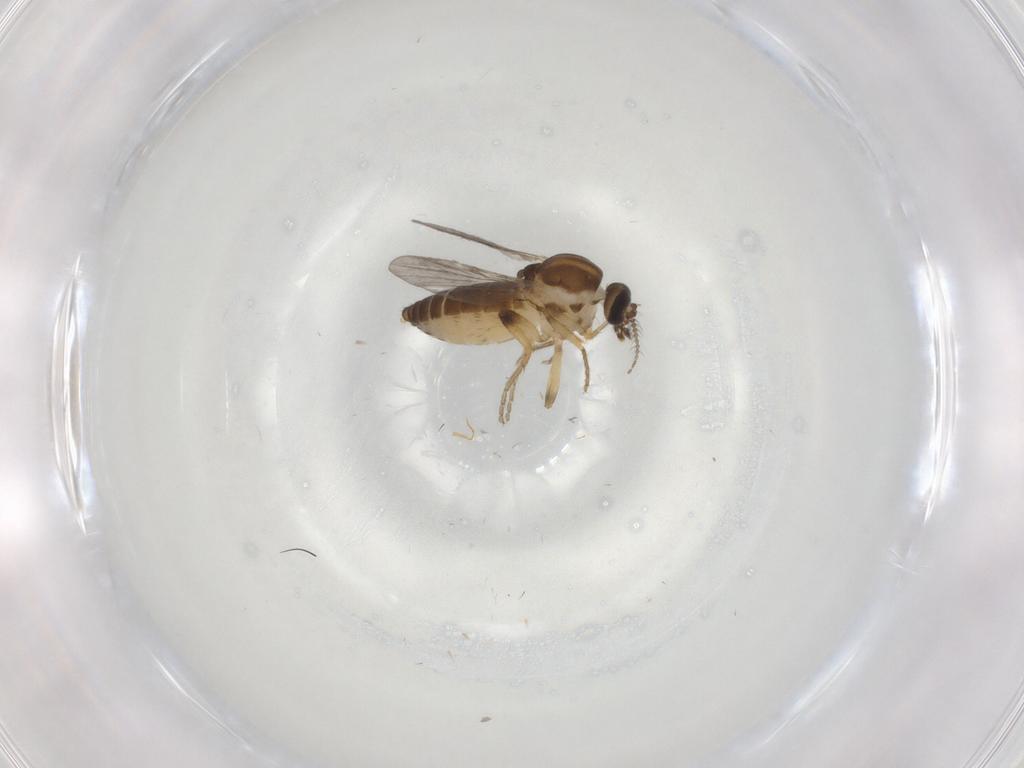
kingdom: Animalia
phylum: Arthropoda
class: Insecta
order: Diptera
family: Ceratopogonidae
